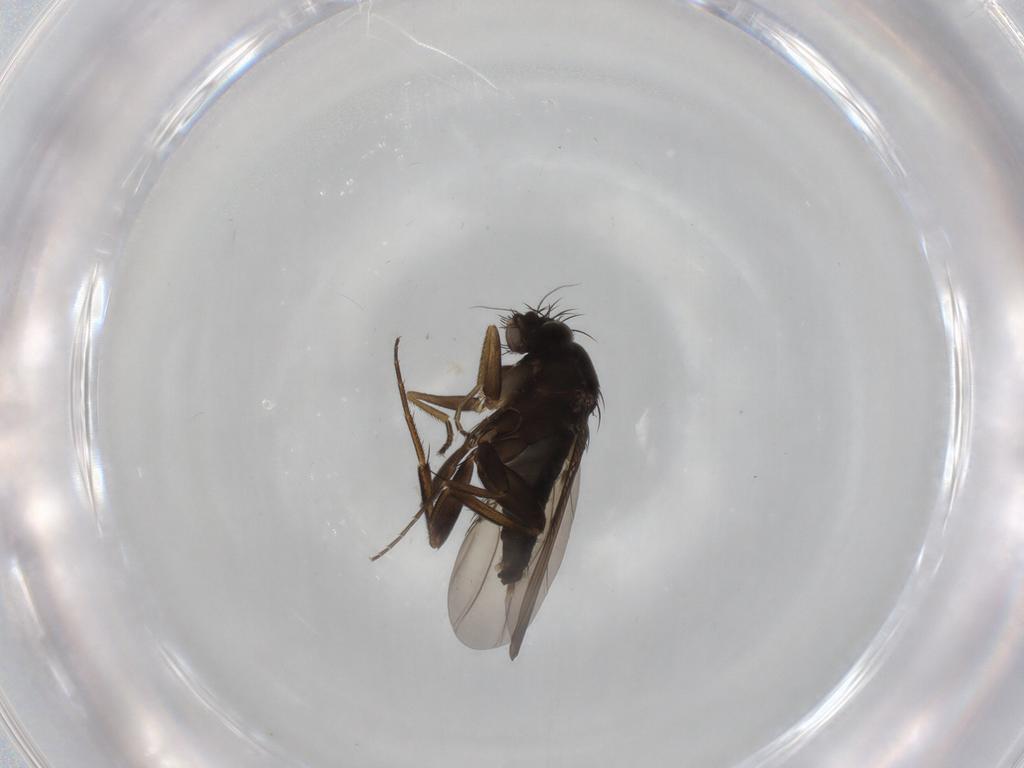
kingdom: Animalia
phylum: Arthropoda
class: Insecta
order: Diptera
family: Phoridae
